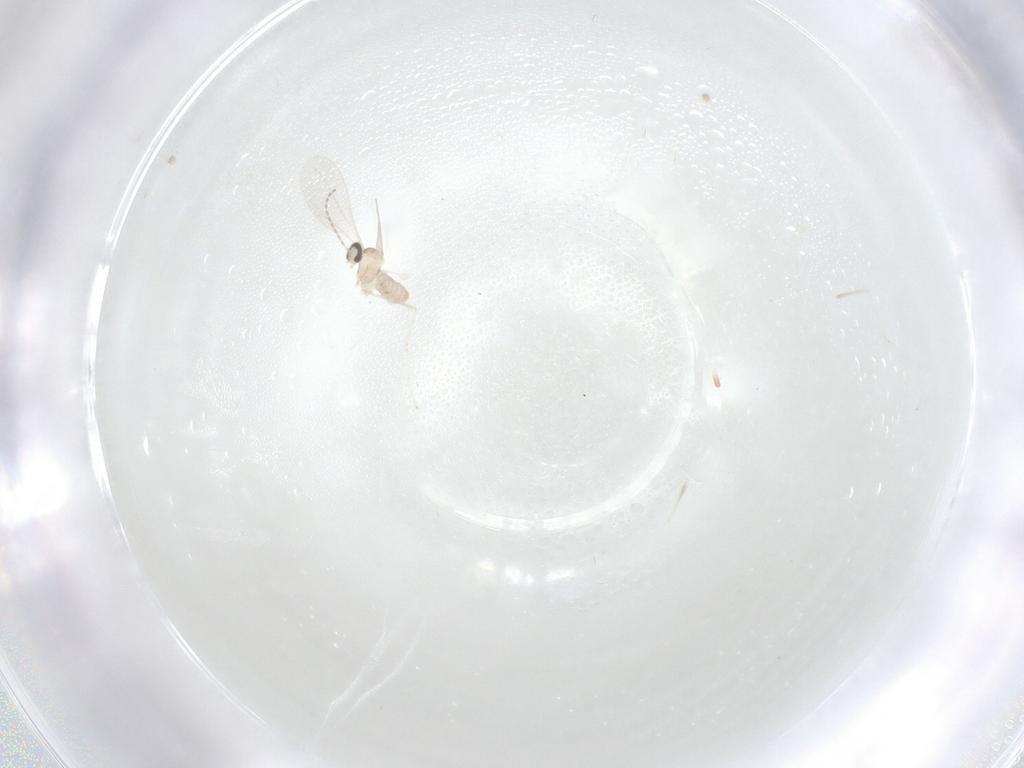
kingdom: Animalia
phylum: Arthropoda
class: Insecta
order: Diptera
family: Cecidomyiidae
